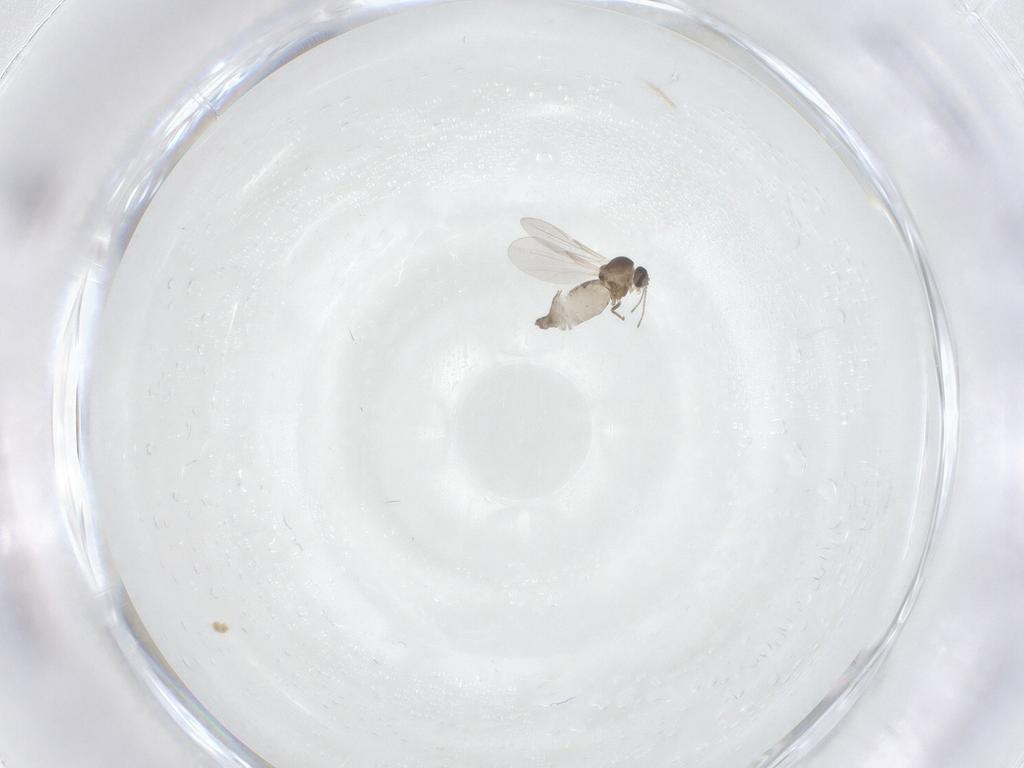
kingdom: Animalia
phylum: Arthropoda
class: Insecta
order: Diptera
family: Ceratopogonidae
